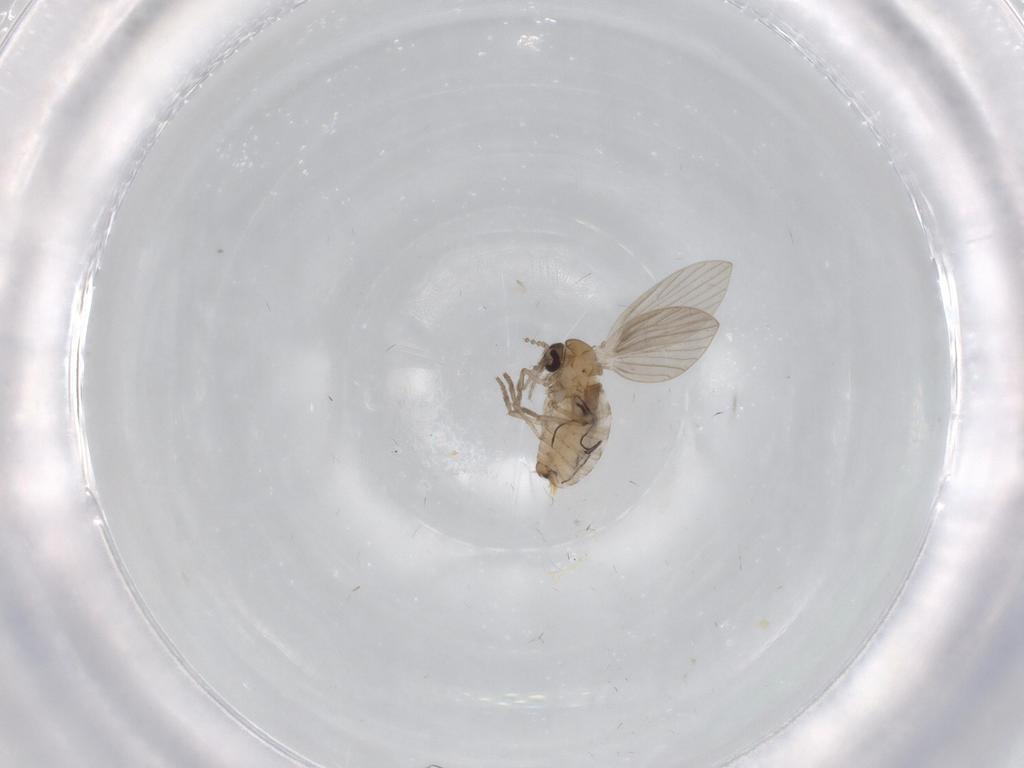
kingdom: Animalia
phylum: Arthropoda
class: Insecta
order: Diptera
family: Psychodidae
